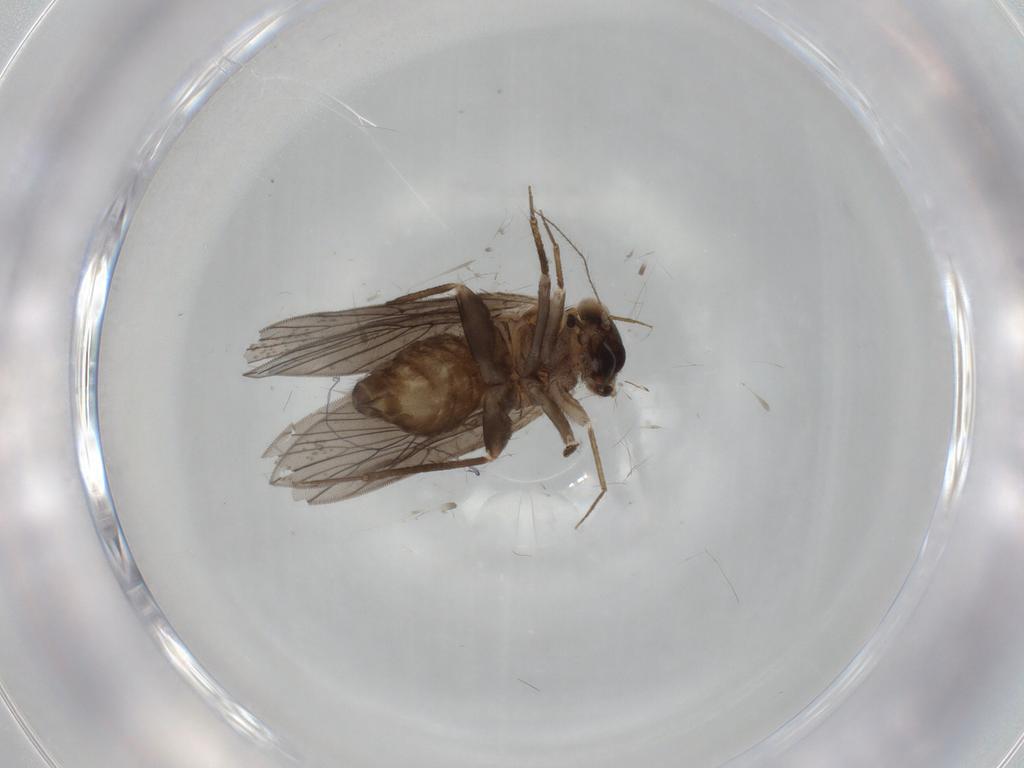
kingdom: Animalia
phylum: Arthropoda
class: Insecta
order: Psocodea
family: Lepidopsocidae
